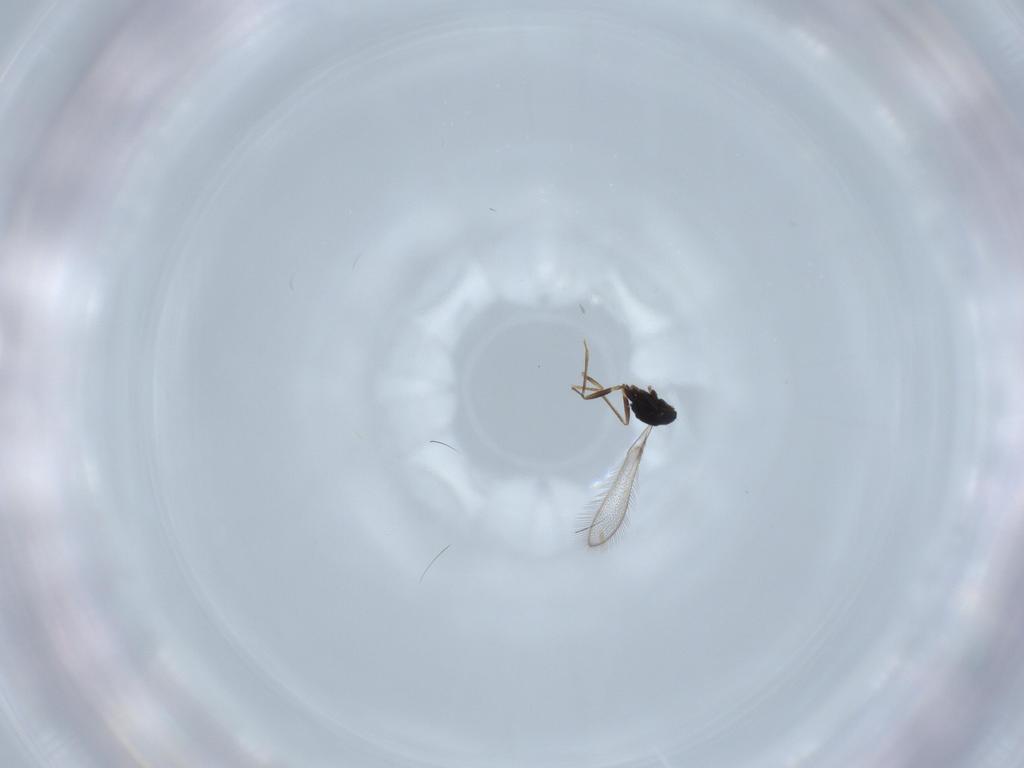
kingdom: Animalia
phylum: Arthropoda
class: Insecta
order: Hymenoptera
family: Mymaridae
